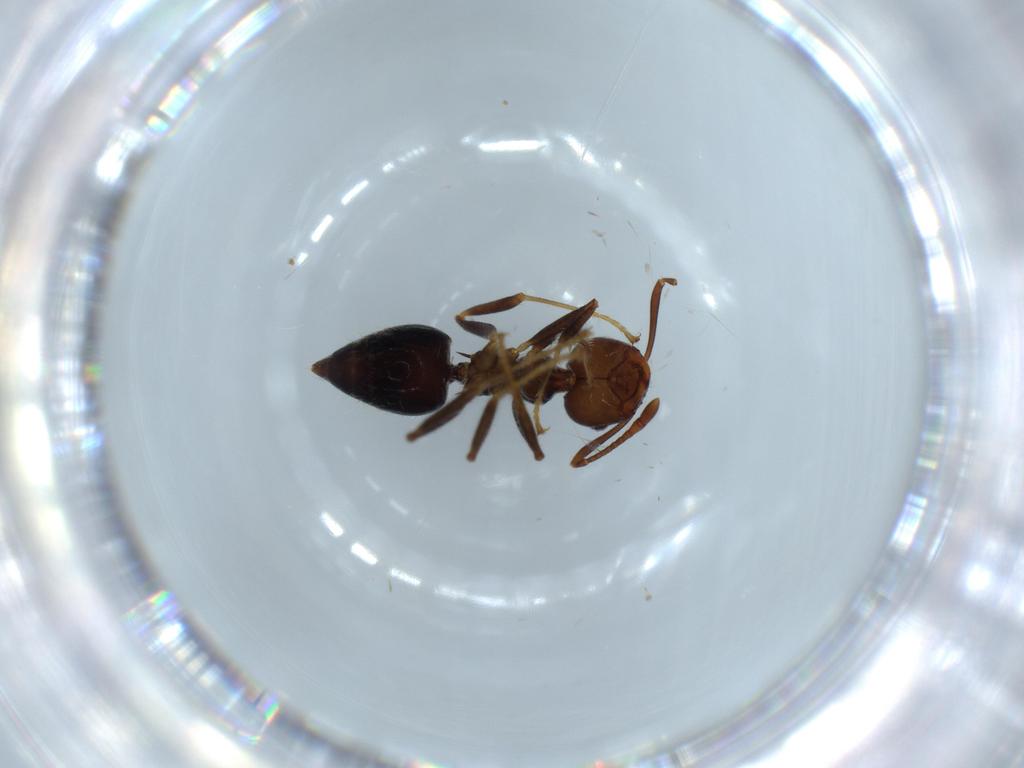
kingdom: Animalia
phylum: Arthropoda
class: Insecta
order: Hymenoptera
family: Formicidae
